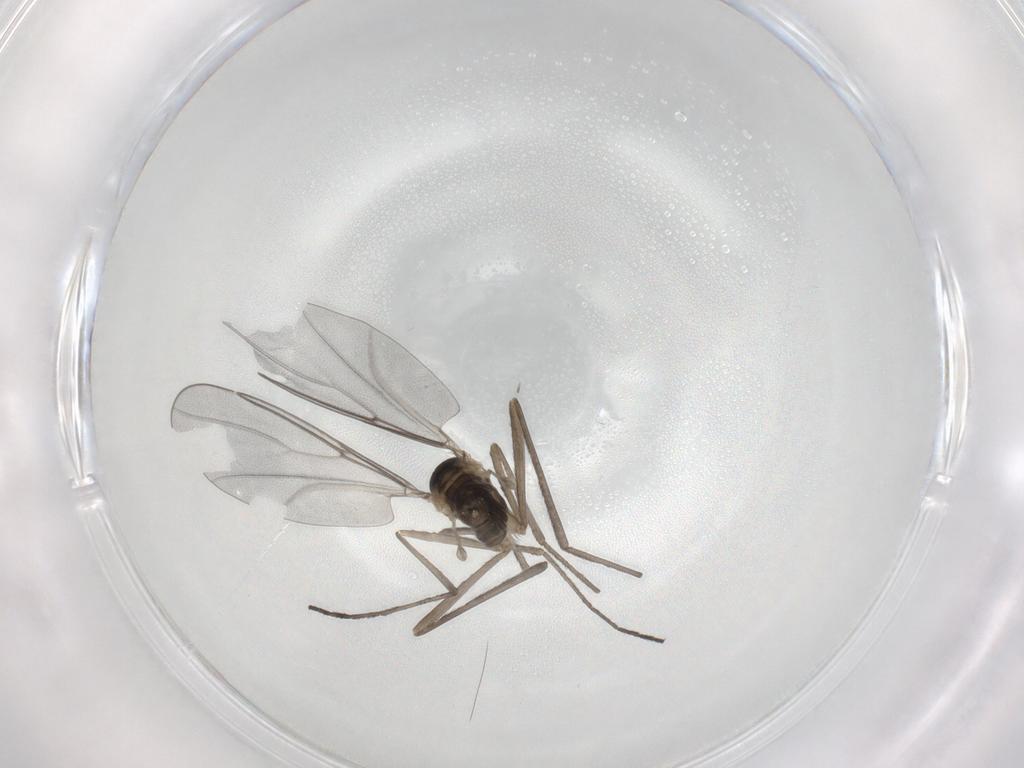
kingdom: Animalia
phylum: Arthropoda
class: Insecta
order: Diptera
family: Cecidomyiidae
